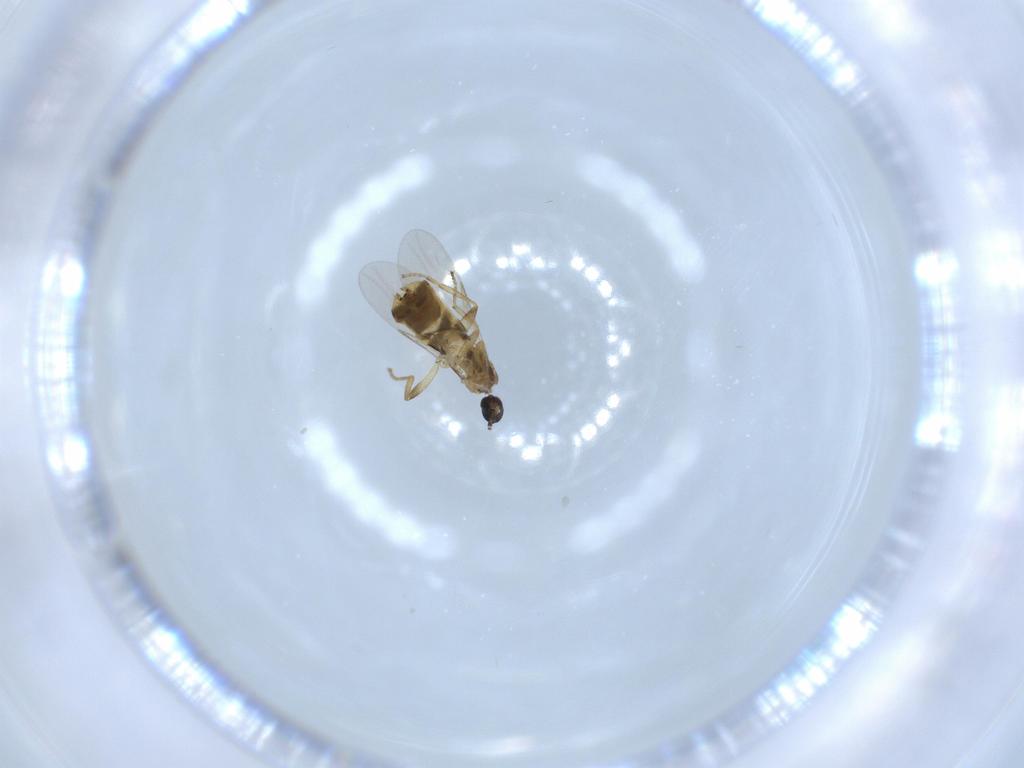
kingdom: Animalia
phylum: Arthropoda
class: Insecta
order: Diptera
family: Scatopsidae
